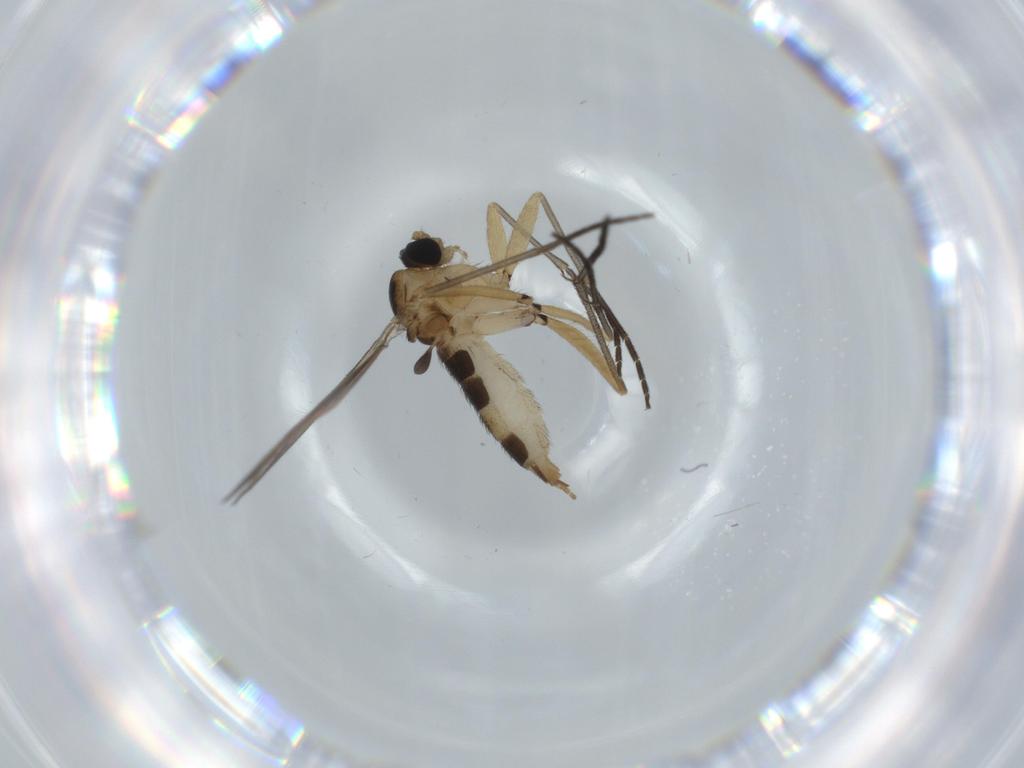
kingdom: Animalia
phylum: Arthropoda
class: Insecta
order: Diptera
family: Sciaridae
